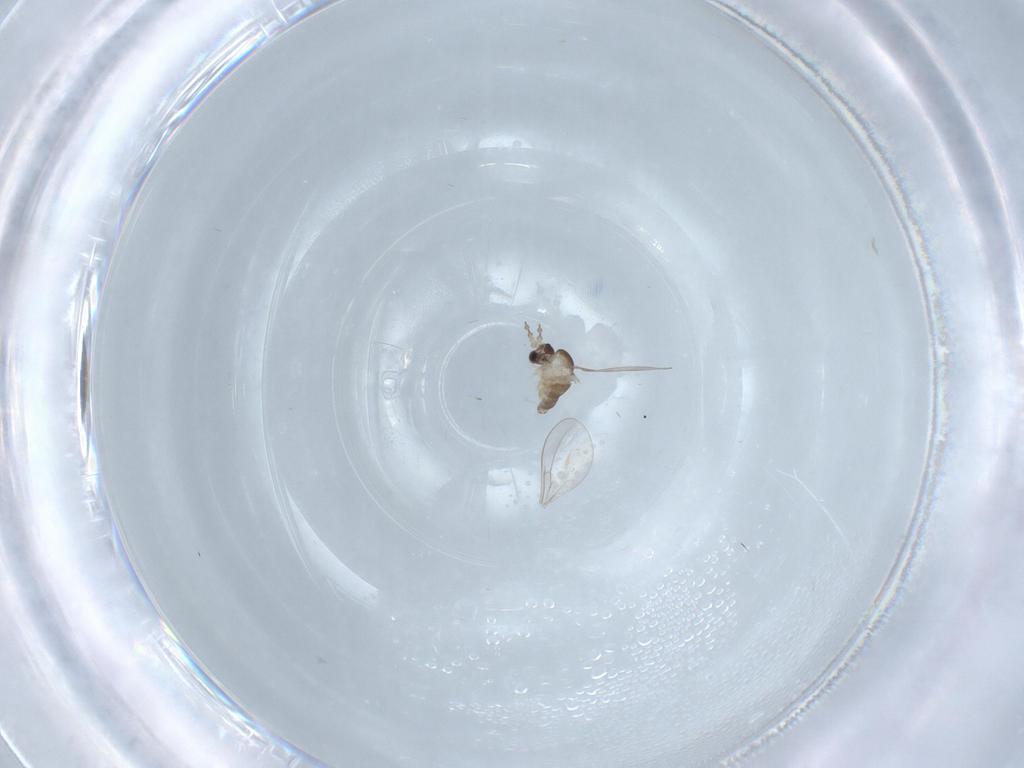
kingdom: Animalia
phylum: Arthropoda
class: Insecta
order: Diptera
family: Cecidomyiidae
